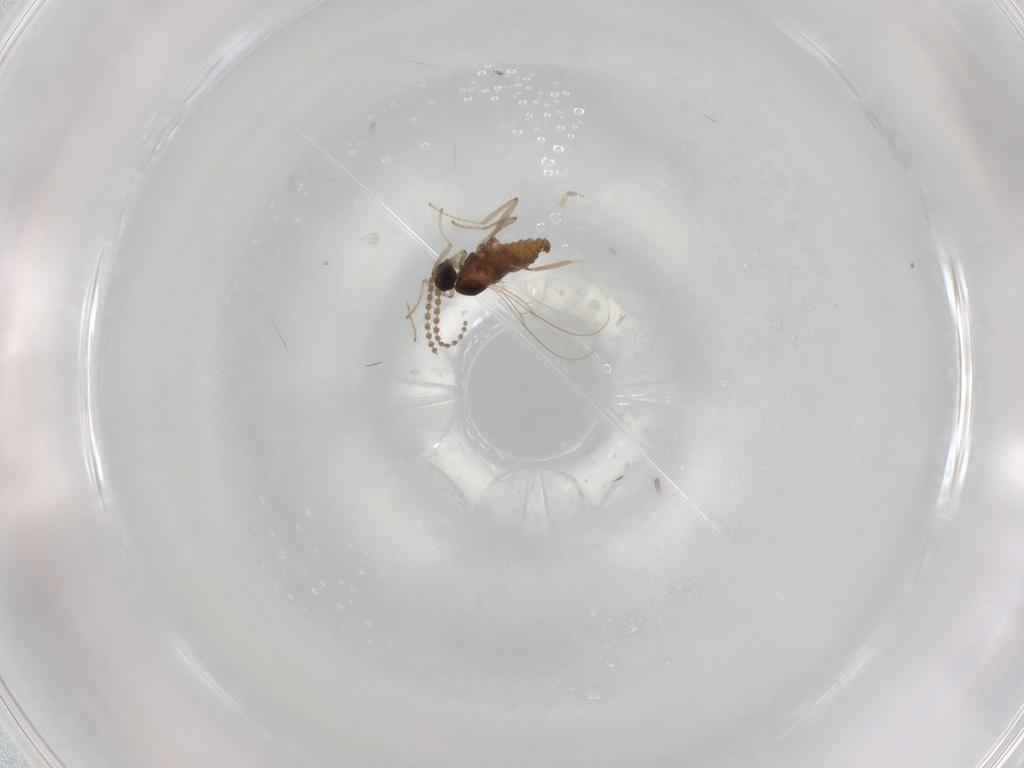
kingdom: Animalia
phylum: Arthropoda
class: Insecta
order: Diptera
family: Cecidomyiidae
